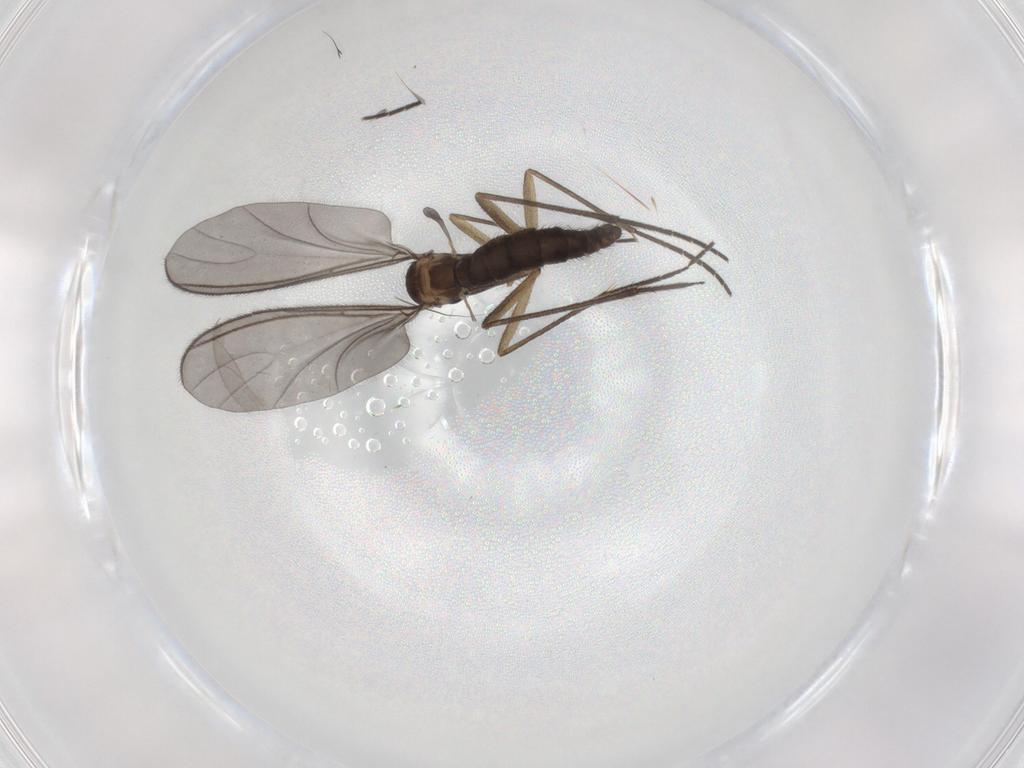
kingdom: Animalia
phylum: Arthropoda
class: Insecta
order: Diptera
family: Sciaridae
